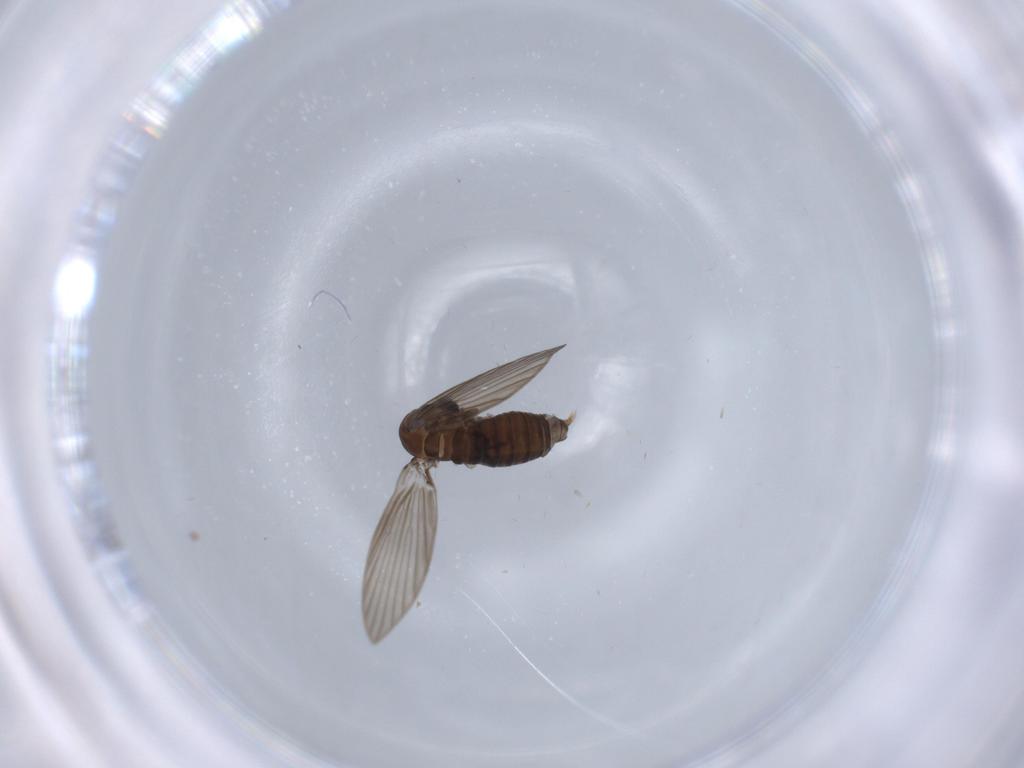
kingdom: Animalia
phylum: Arthropoda
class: Insecta
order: Diptera
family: Psychodidae
